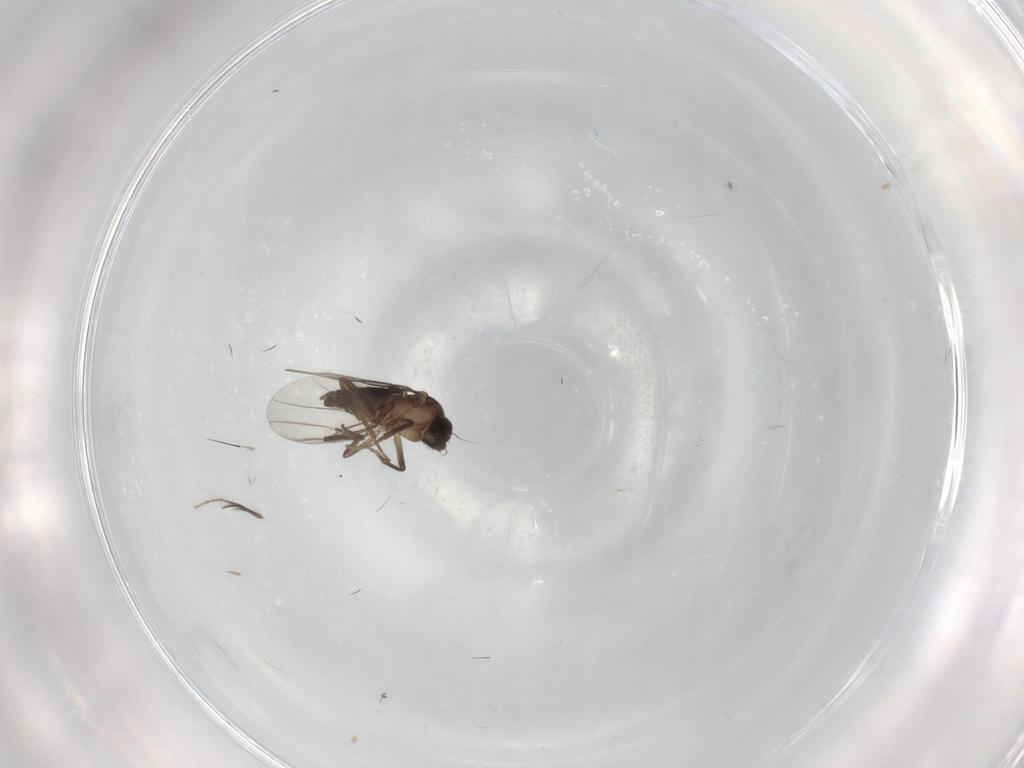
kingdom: Animalia
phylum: Arthropoda
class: Insecta
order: Diptera
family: Phoridae
